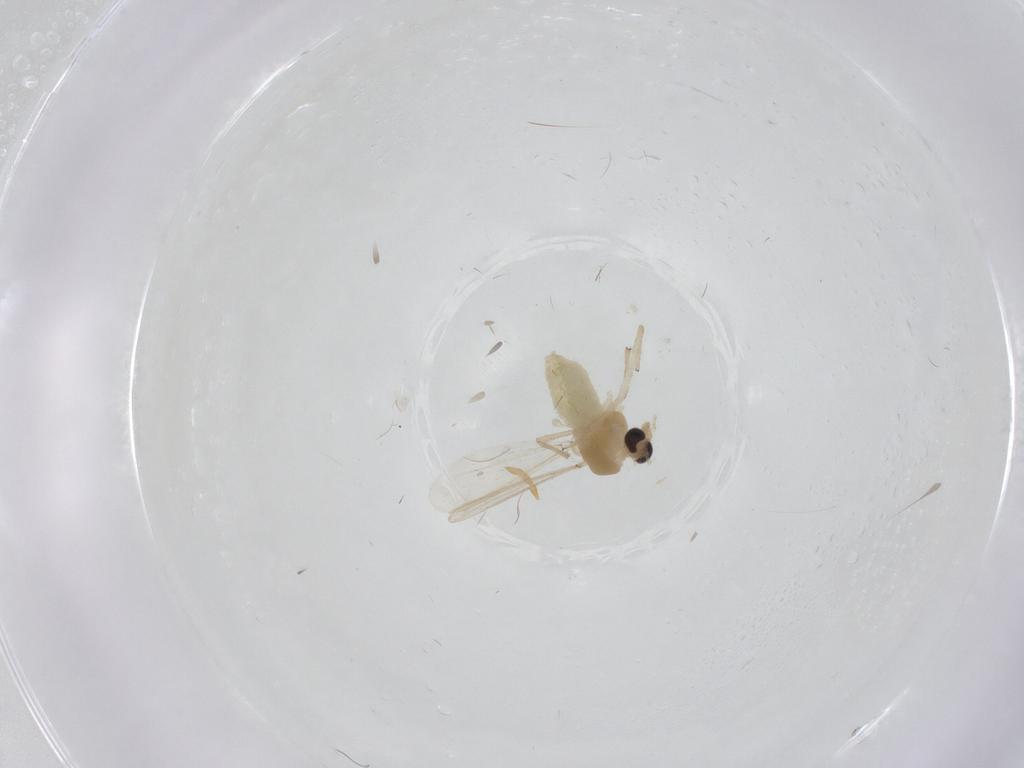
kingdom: Animalia
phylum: Arthropoda
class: Insecta
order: Diptera
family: Chironomidae
